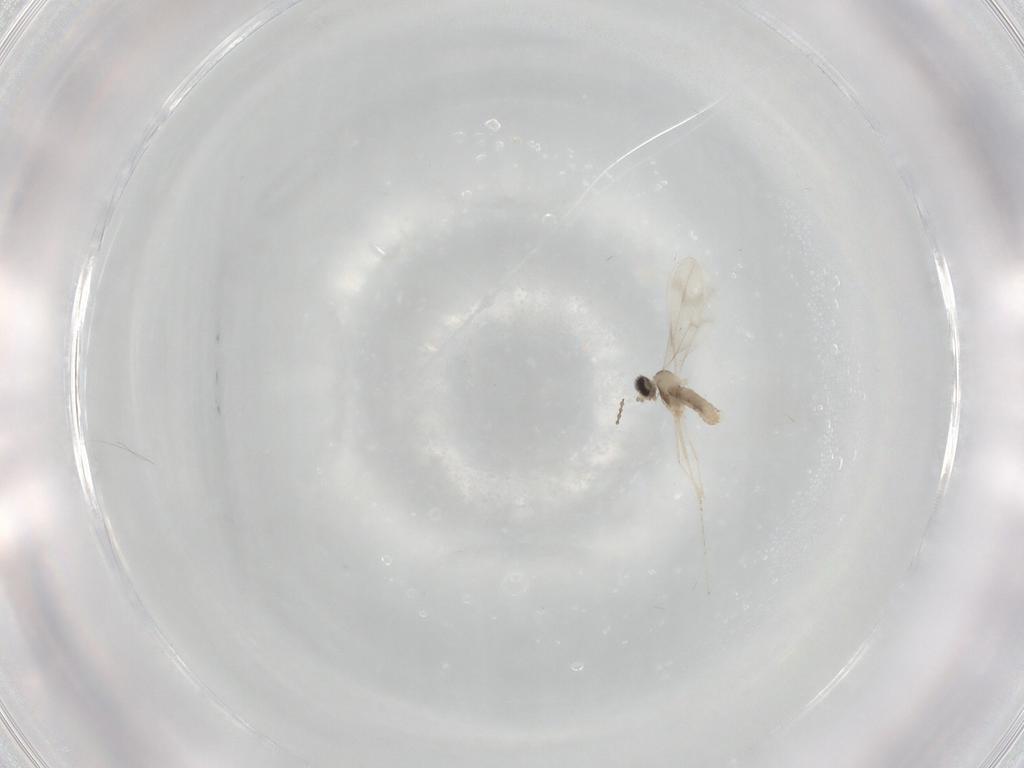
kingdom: Animalia
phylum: Arthropoda
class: Insecta
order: Diptera
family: Cecidomyiidae
